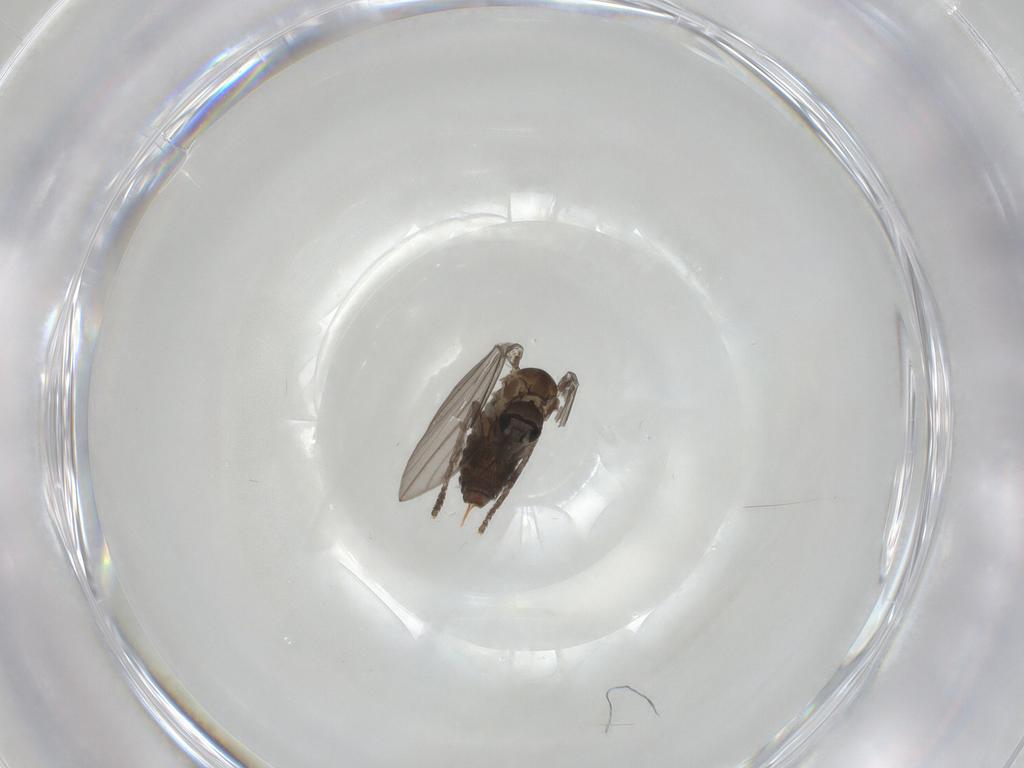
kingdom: Animalia
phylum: Arthropoda
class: Insecta
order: Diptera
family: Psychodidae
